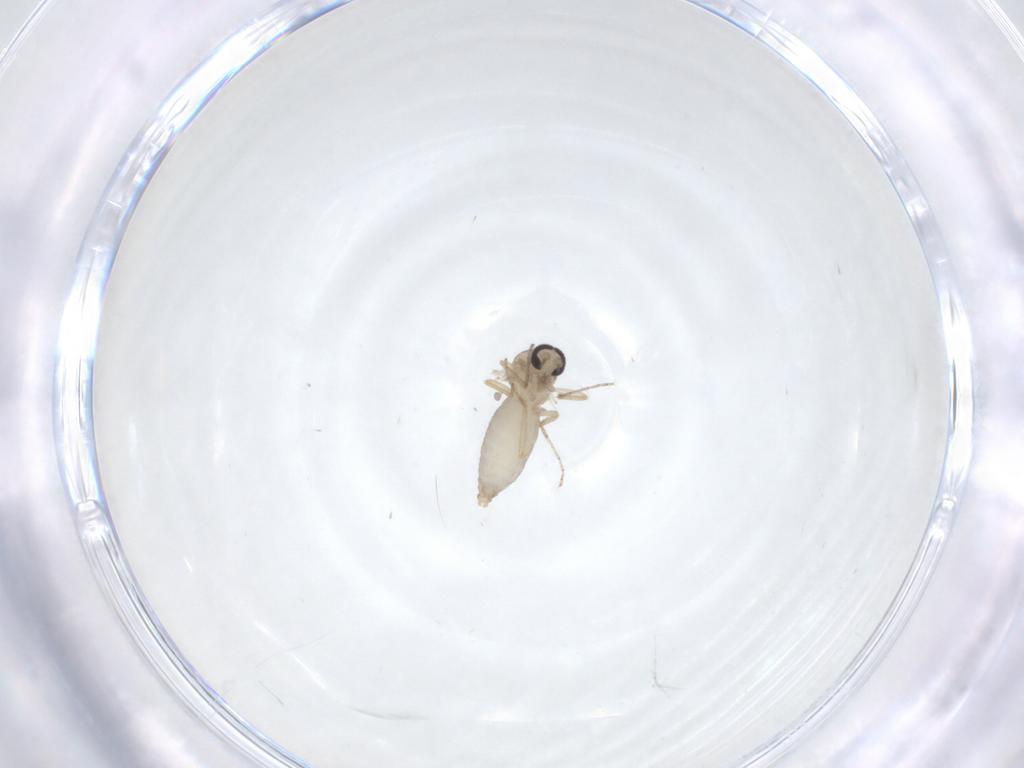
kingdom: Animalia
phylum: Arthropoda
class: Insecta
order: Diptera
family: Ceratopogonidae
